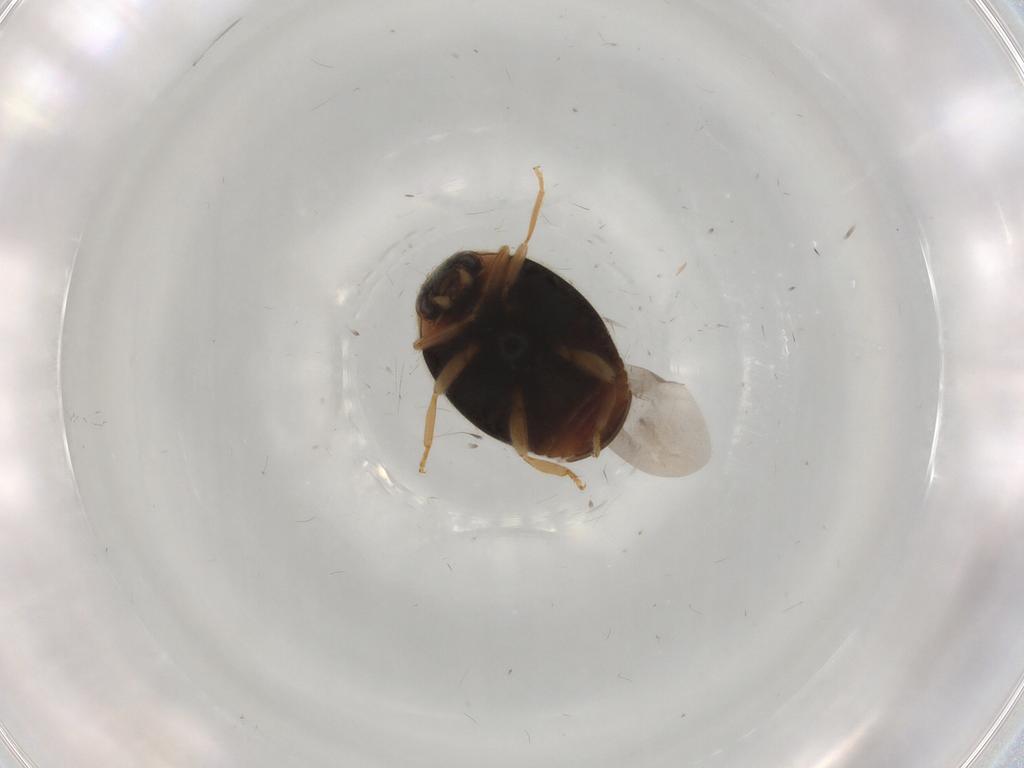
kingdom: Animalia
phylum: Arthropoda
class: Insecta
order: Coleoptera
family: Coccinellidae
